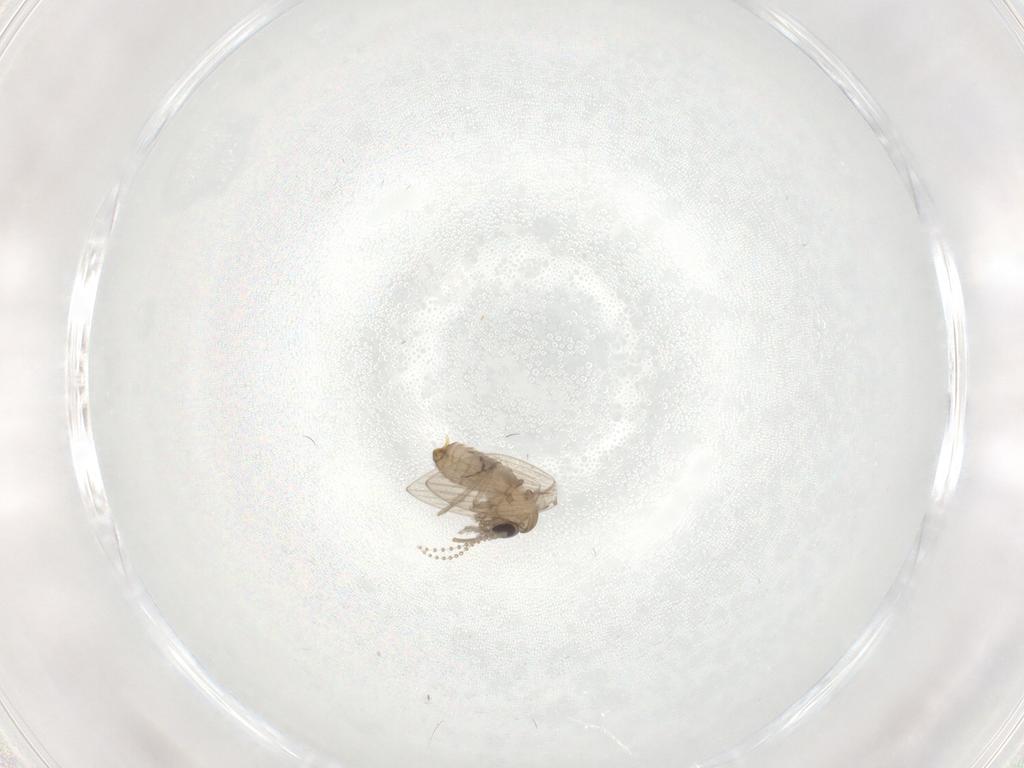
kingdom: Animalia
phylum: Arthropoda
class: Insecta
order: Diptera
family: Psychodidae
